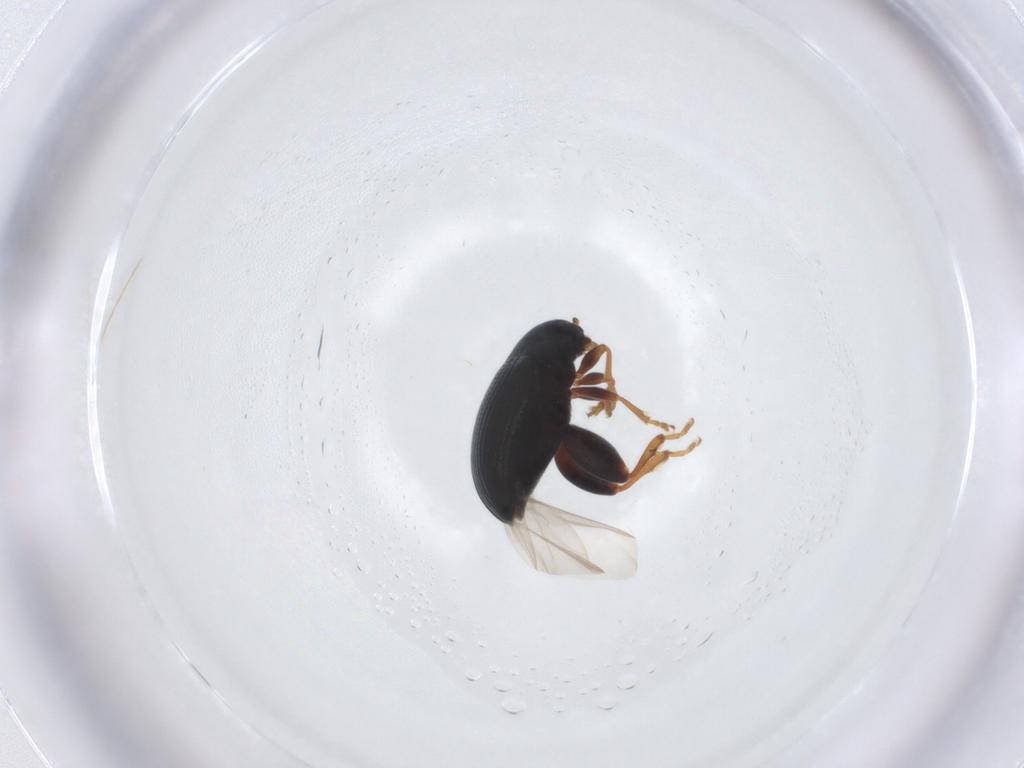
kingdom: Animalia
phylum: Arthropoda
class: Insecta
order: Coleoptera
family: Chrysomelidae
